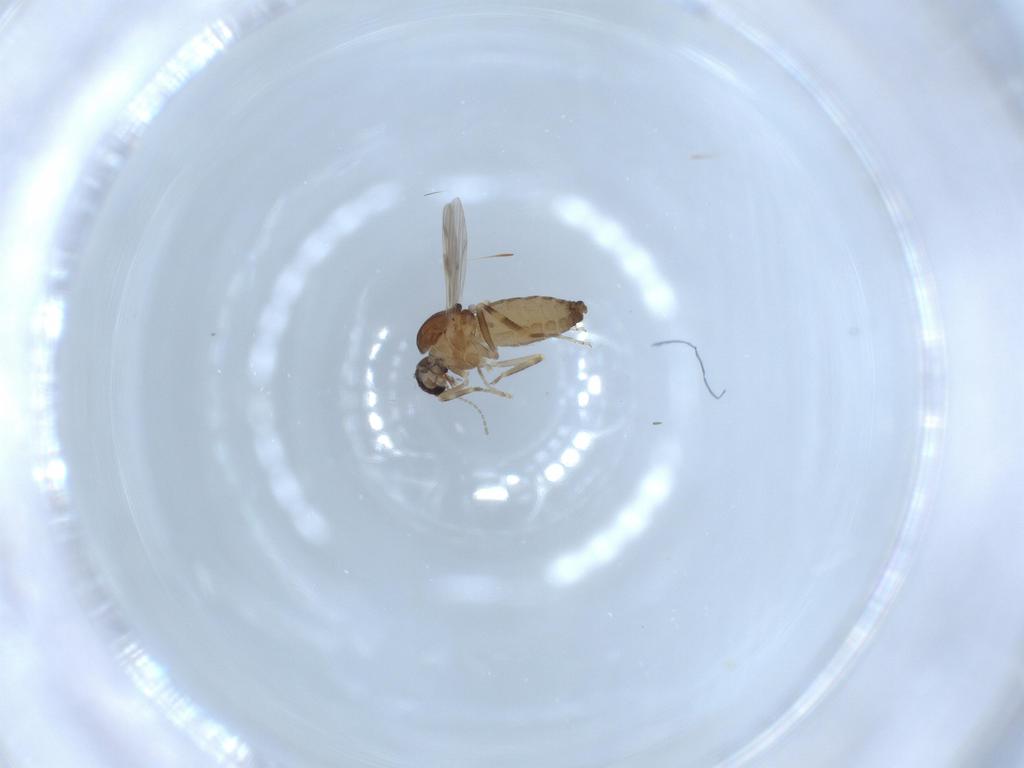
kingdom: Animalia
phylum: Arthropoda
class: Insecta
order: Diptera
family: Ceratopogonidae
